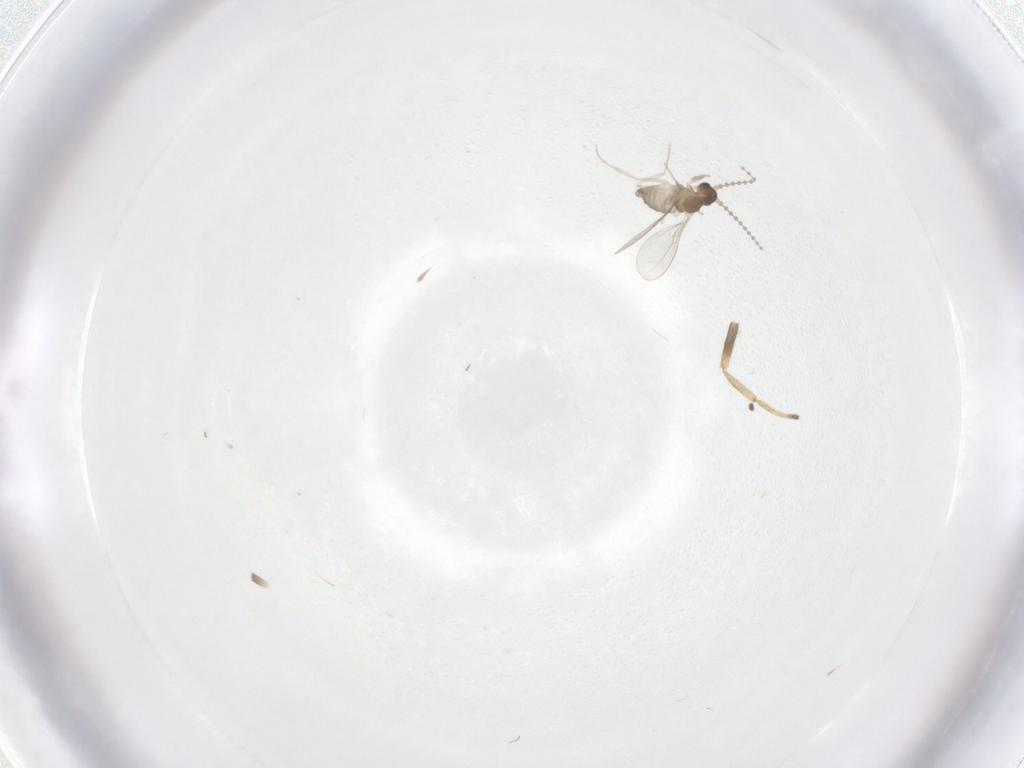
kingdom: Animalia
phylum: Arthropoda
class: Insecta
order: Diptera
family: Chloropidae
